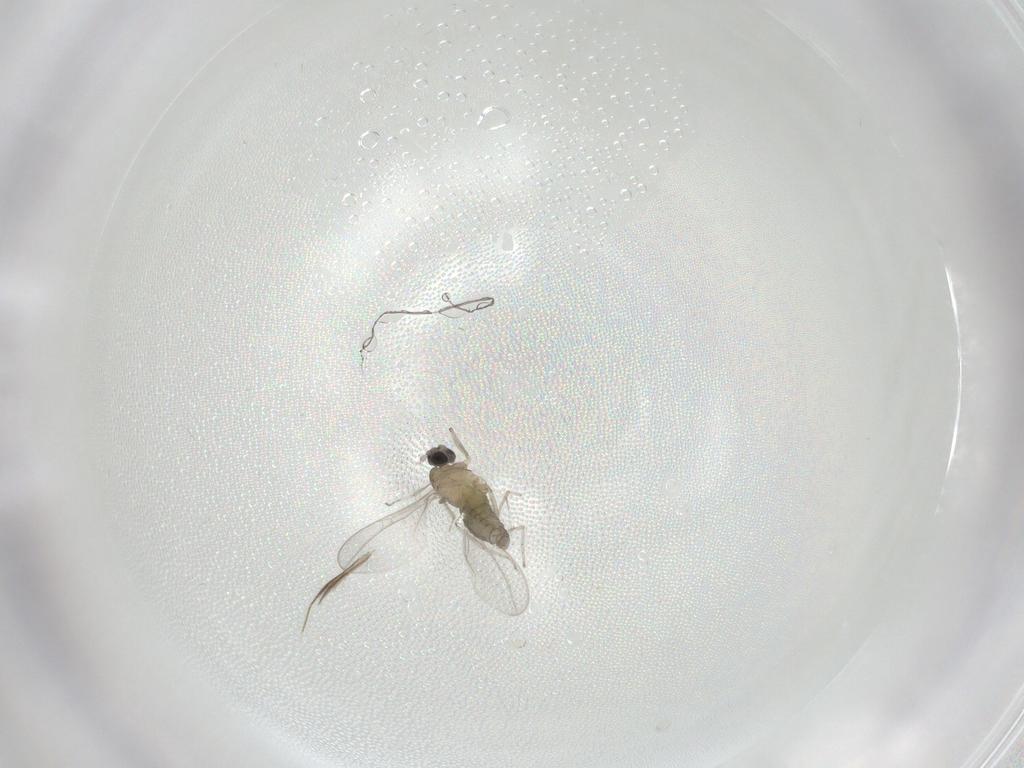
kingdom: Animalia
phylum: Arthropoda
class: Insecta
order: Diptera
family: Cecidomyiidae
